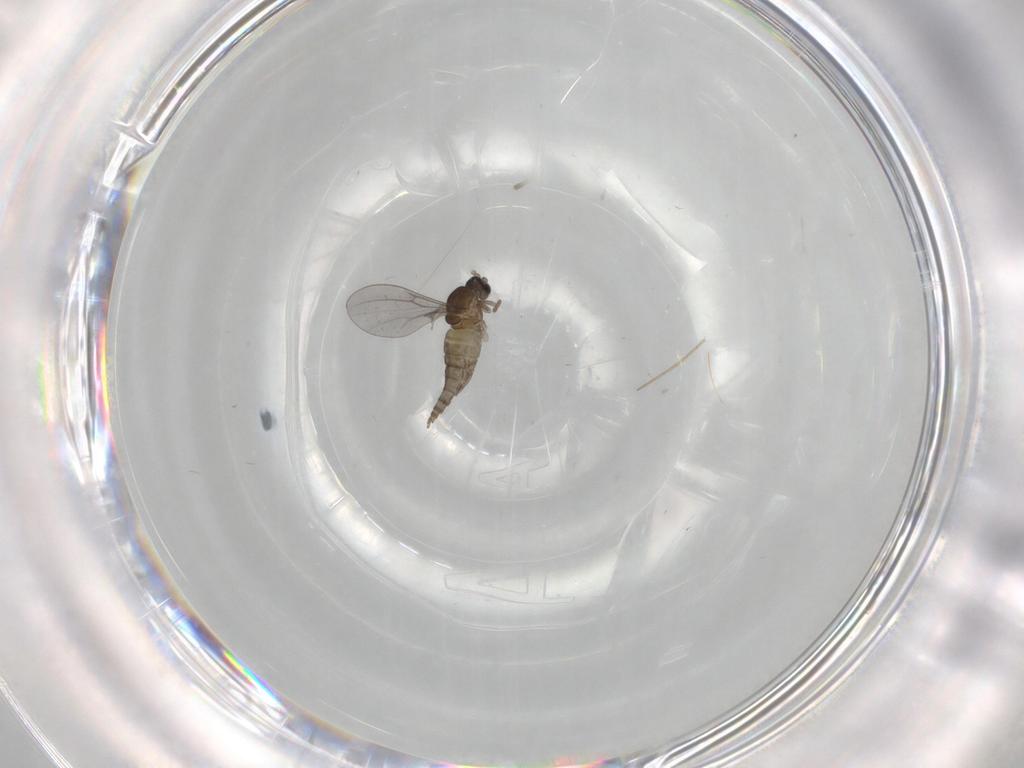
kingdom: Animalia
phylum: Arthropoda
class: Insecta
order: Diptera
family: Cecidomyiidae
